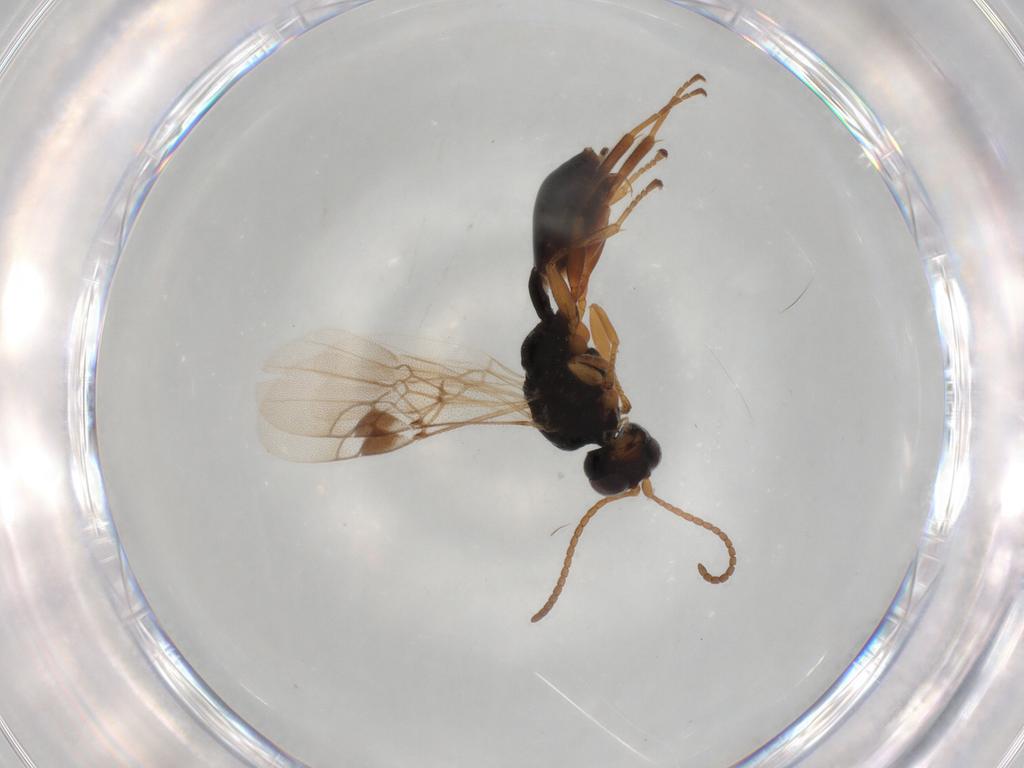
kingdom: Animalia
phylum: Arthropoda
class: Insecta
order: Hymenoptera
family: Braconidae
